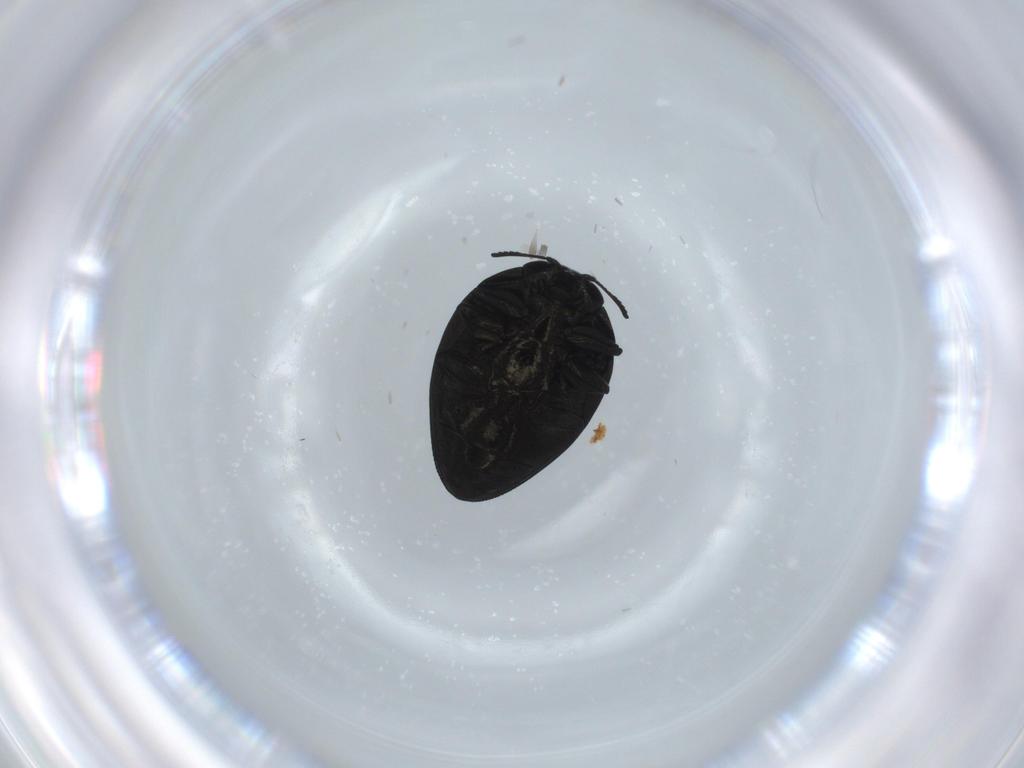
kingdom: Animalia
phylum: Arthropoda
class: Insecta
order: Coleoptera
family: Buprestidae
